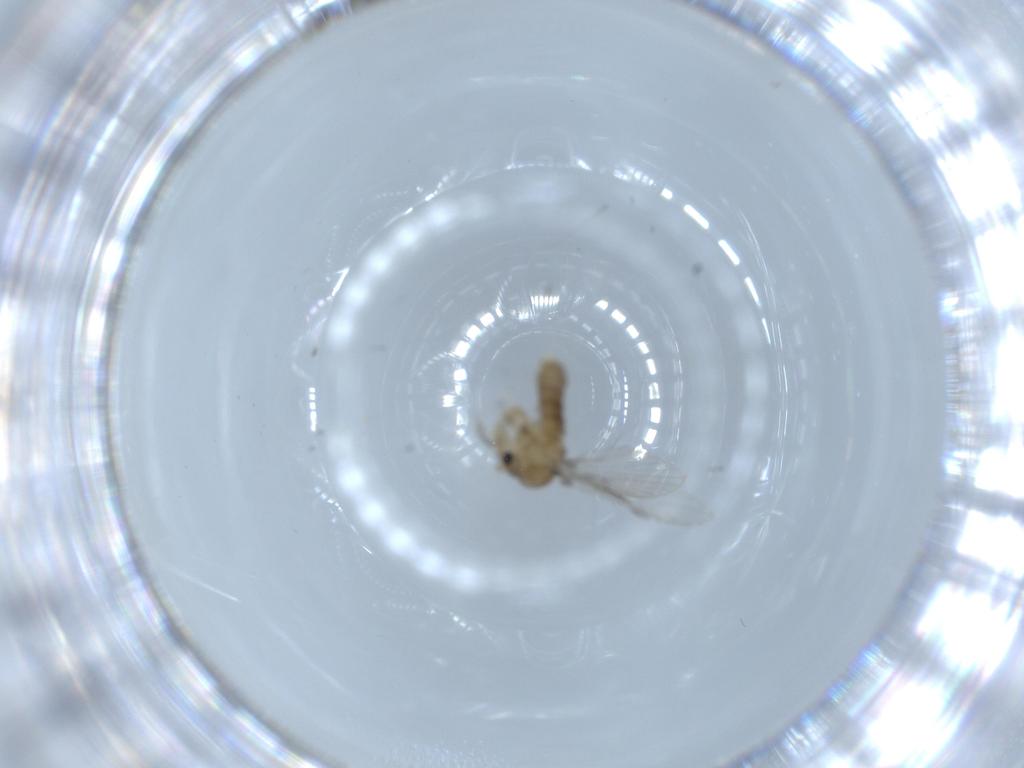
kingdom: Animalia
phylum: Arthropoda
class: Insecta
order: Diptera
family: Psychodidae
